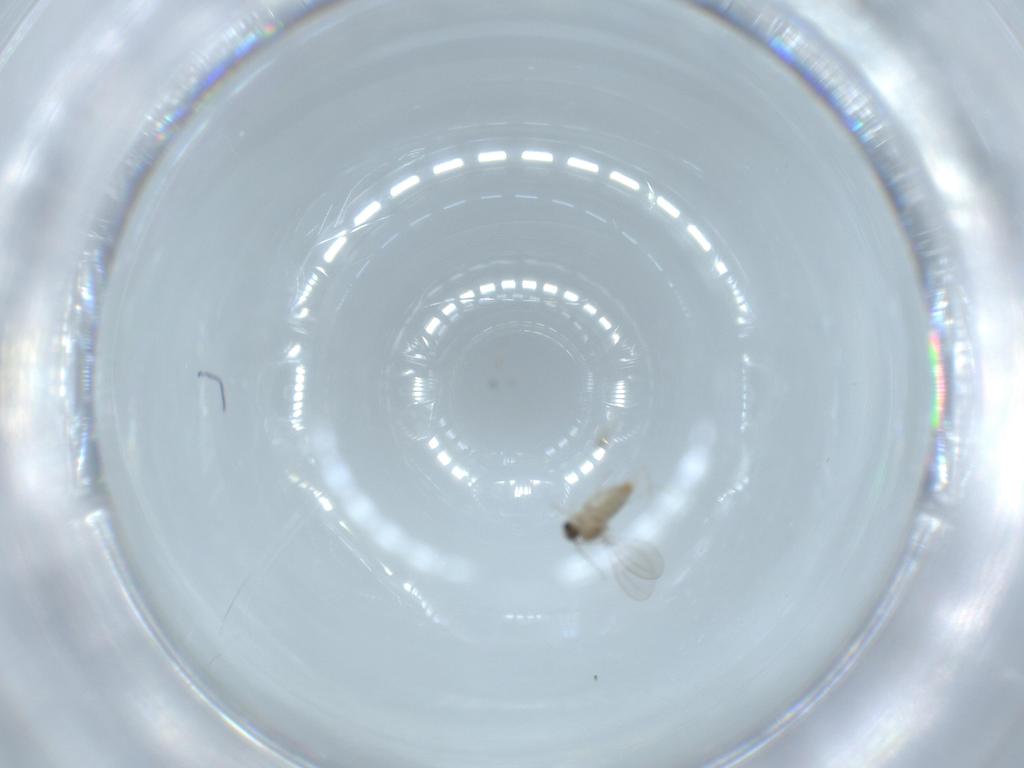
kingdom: Animalia
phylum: Arthropoda
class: Insecta
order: Diptera
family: Cecidomyiidae
